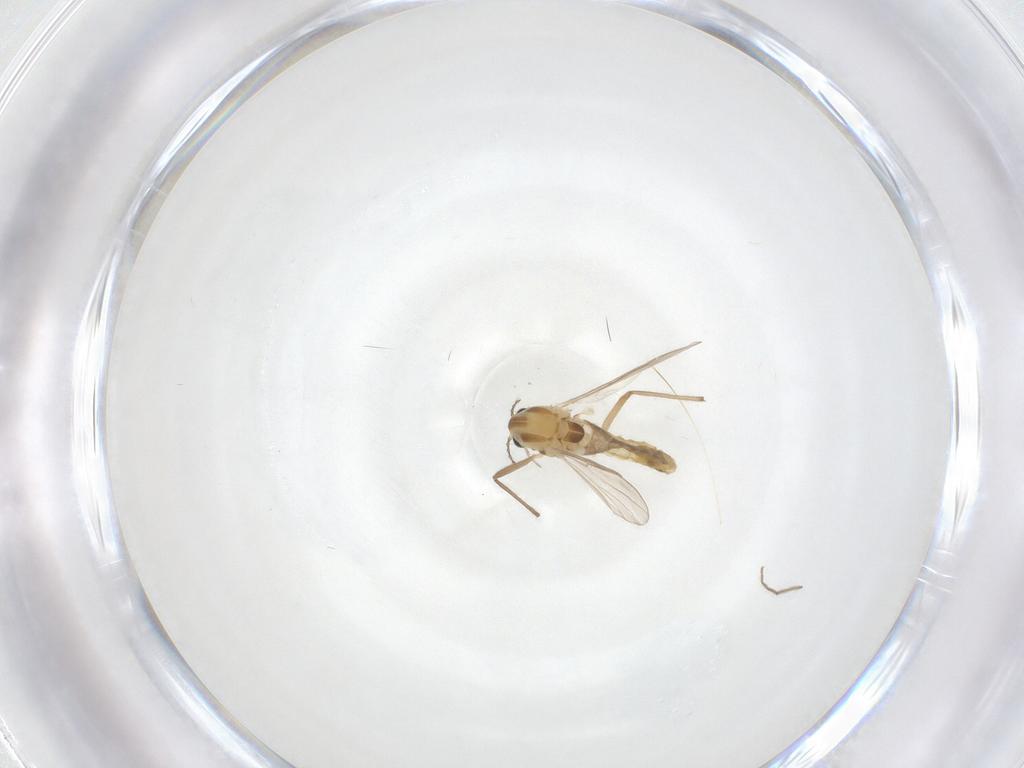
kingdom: Animalia
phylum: Arthropoda
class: Insecta
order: Diptera
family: Chironomidae
